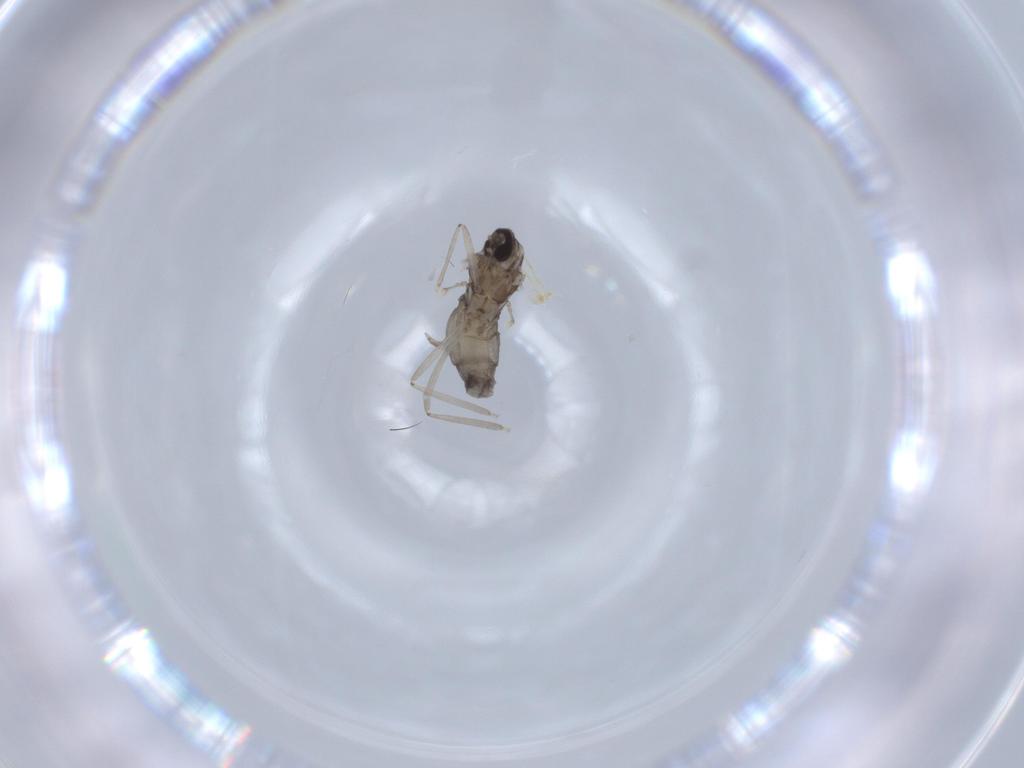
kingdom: Animalia
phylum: Arthropoda
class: Insecta
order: Diptera
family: Cecidomyiidae
